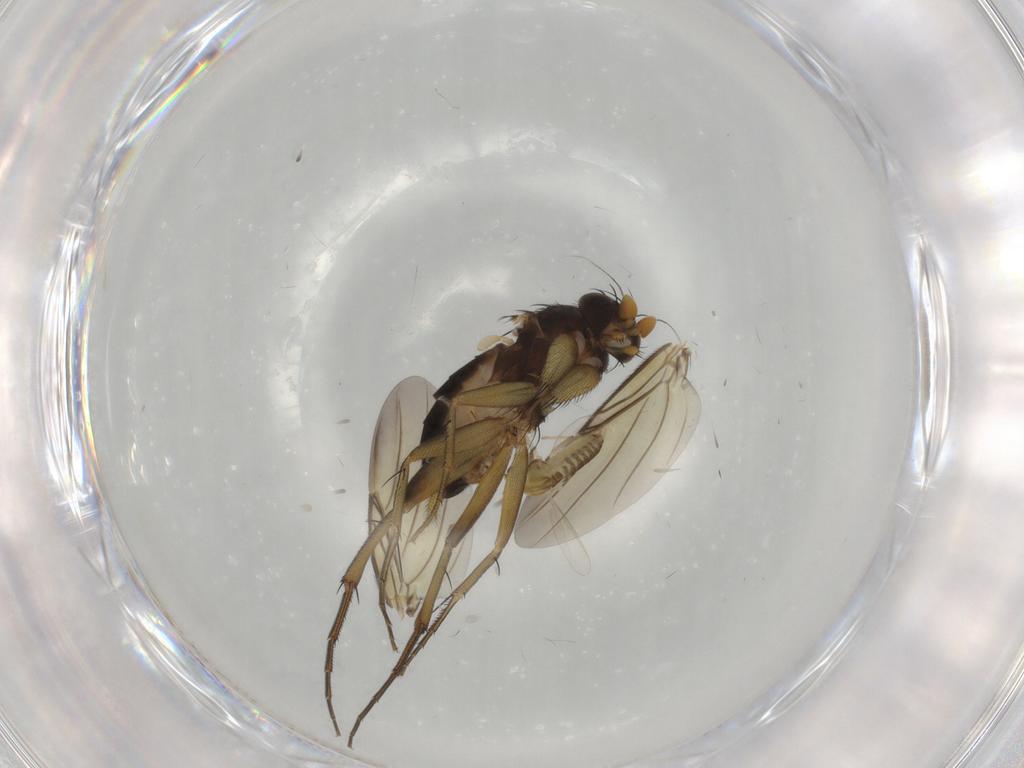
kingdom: Animalia
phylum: Arthropoda
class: Insecta
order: Diptera
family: Phoridae
